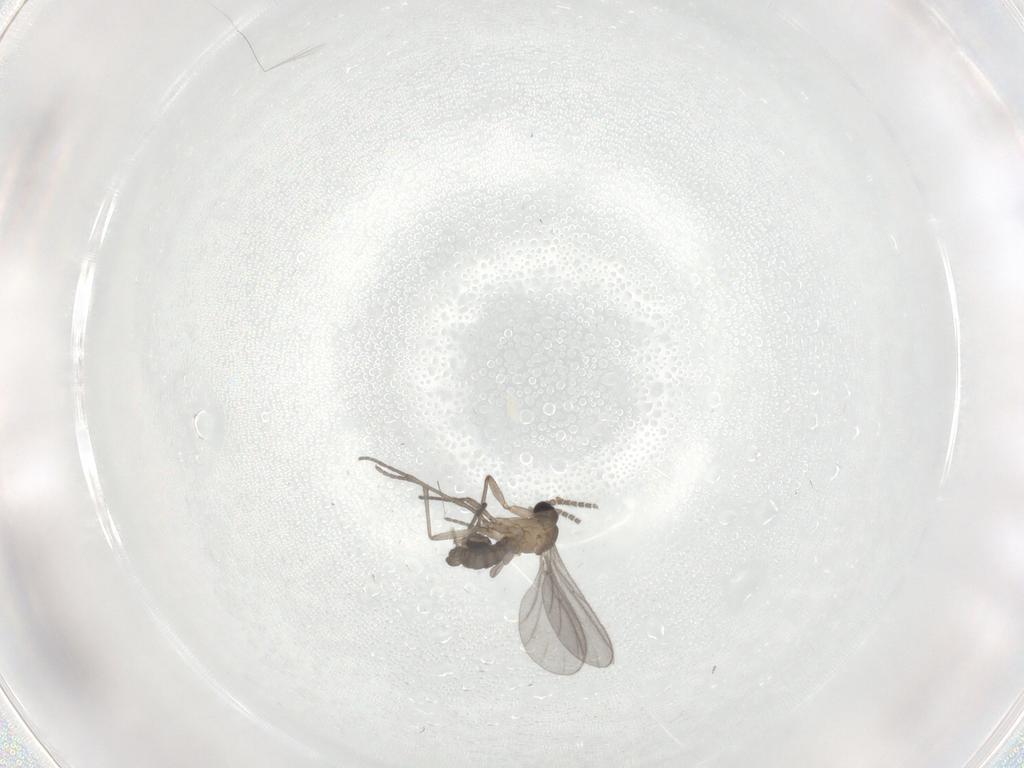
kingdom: Animalia
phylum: Arthropoda
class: Insecta
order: Diptera
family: Sciaridae
